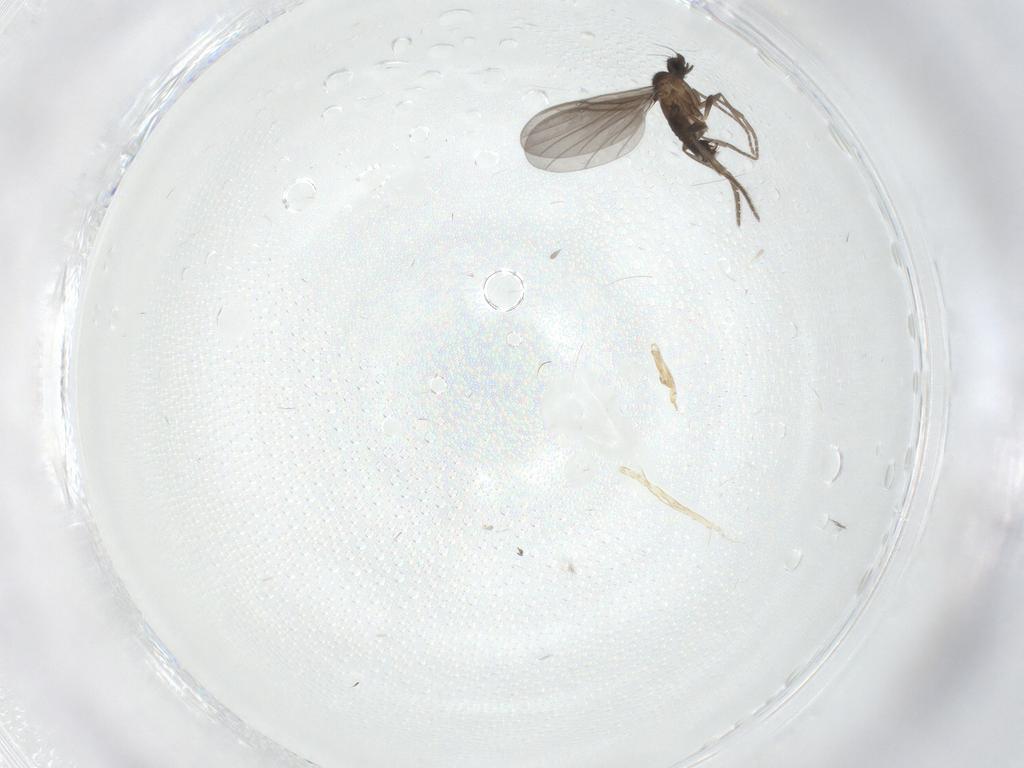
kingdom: Animalia
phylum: Arthropoda
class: Insecta
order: Diptera
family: Phoridae
